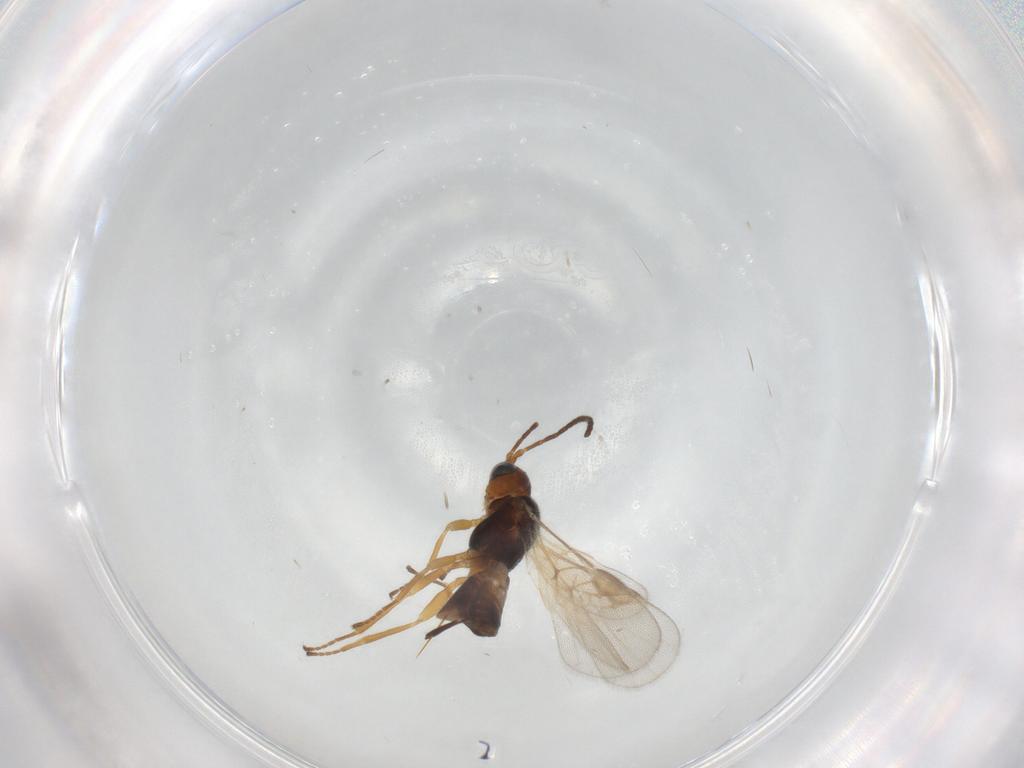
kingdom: Animalia
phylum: Arthropoda
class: Insecta
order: Hymenoptera
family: Braconidae
